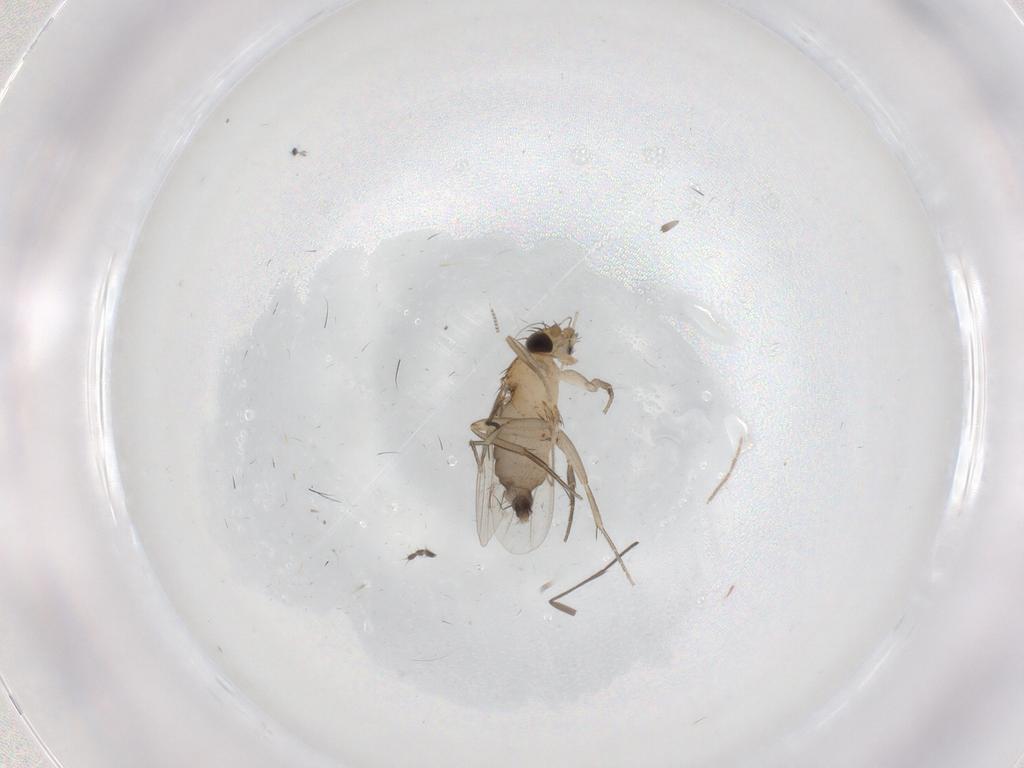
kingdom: Animalia
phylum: Arthropoda
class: Insecta
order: Diptera
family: Phoridae
